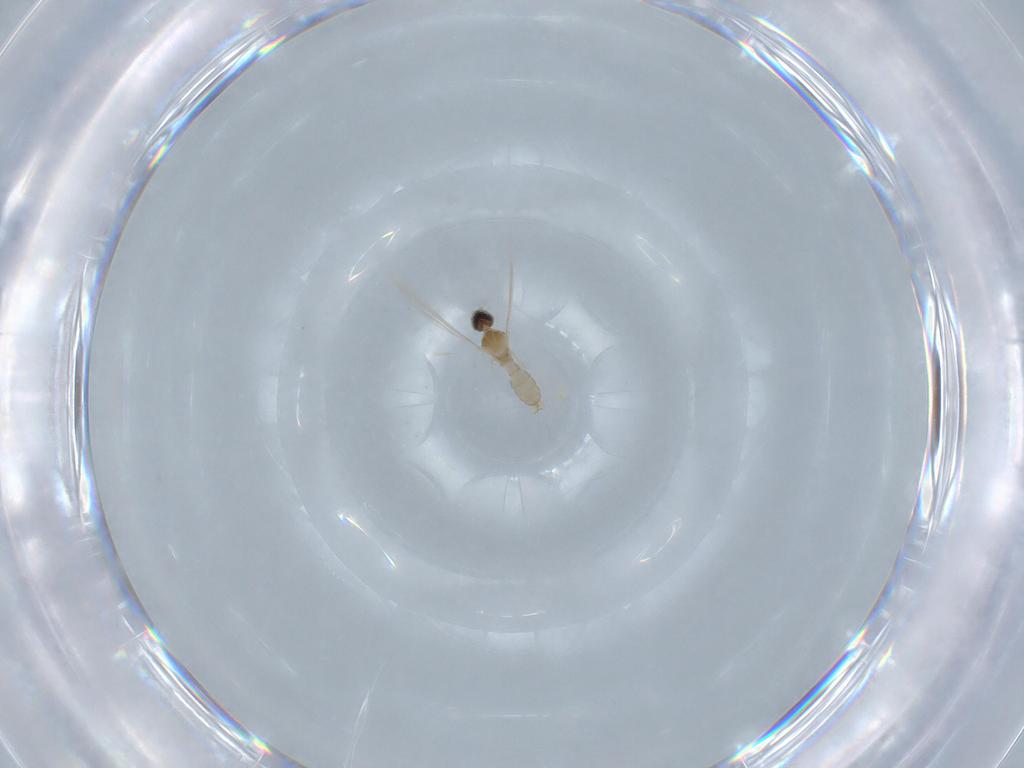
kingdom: Animalia
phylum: Arthropoda
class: Insecta
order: Diptera
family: Cecidomyiidae
